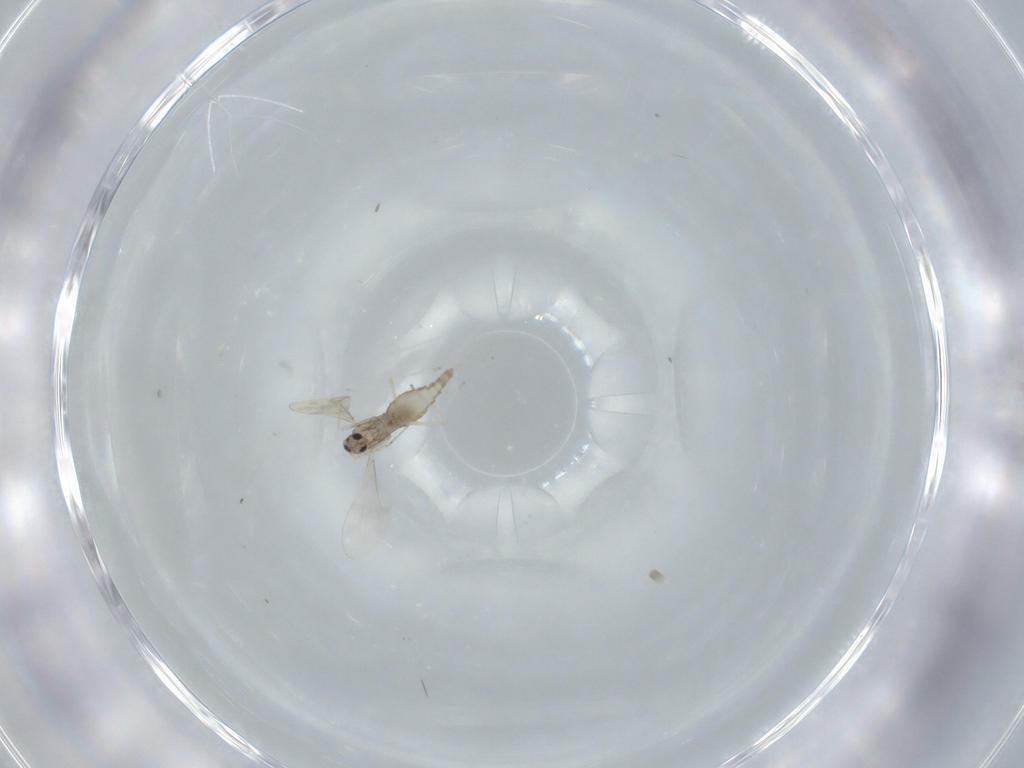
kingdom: Animalia
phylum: Arthropoda
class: Insecta
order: Diptera
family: Cecidomyiidae
